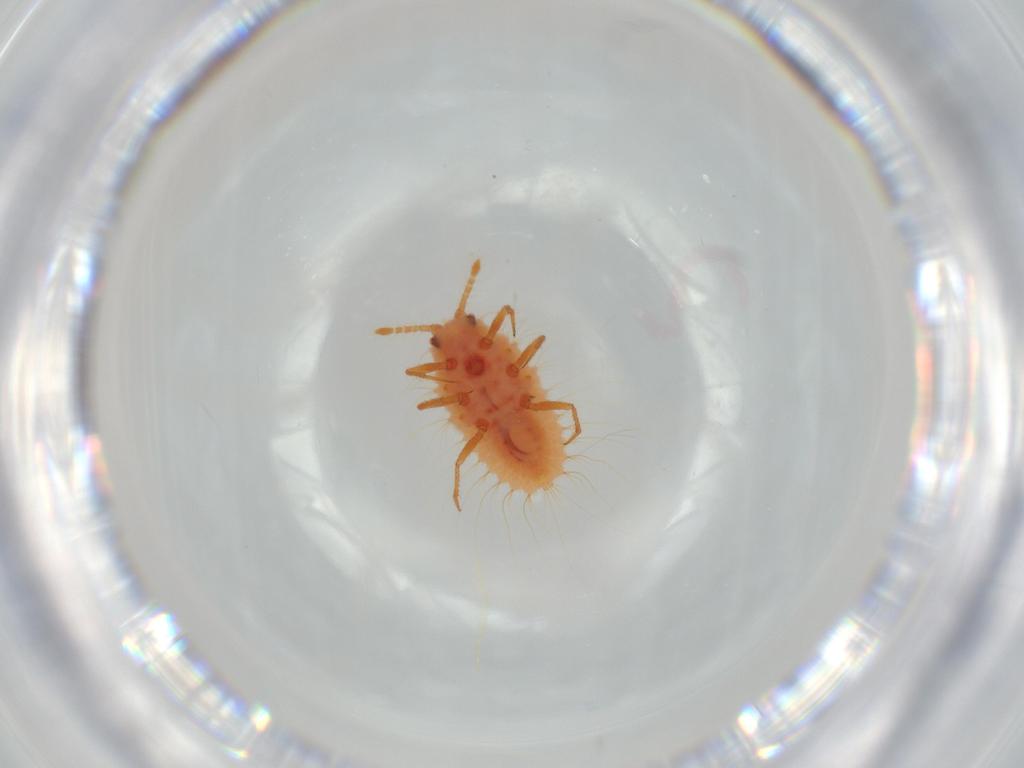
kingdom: Animalia
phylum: Arthropoda
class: Insecta
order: Hemiptera
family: Coccoidea_incertae_sedis
